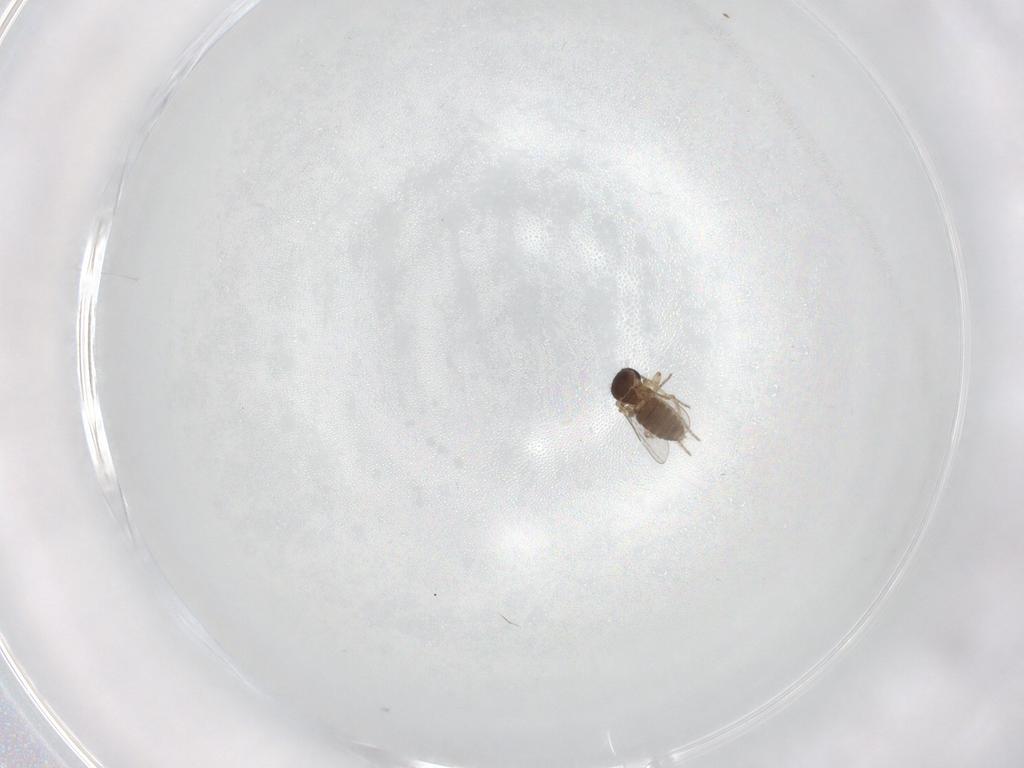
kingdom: Animalia
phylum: Arthropoda
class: Insecta
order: Diptera
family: Ceratopogonidae
